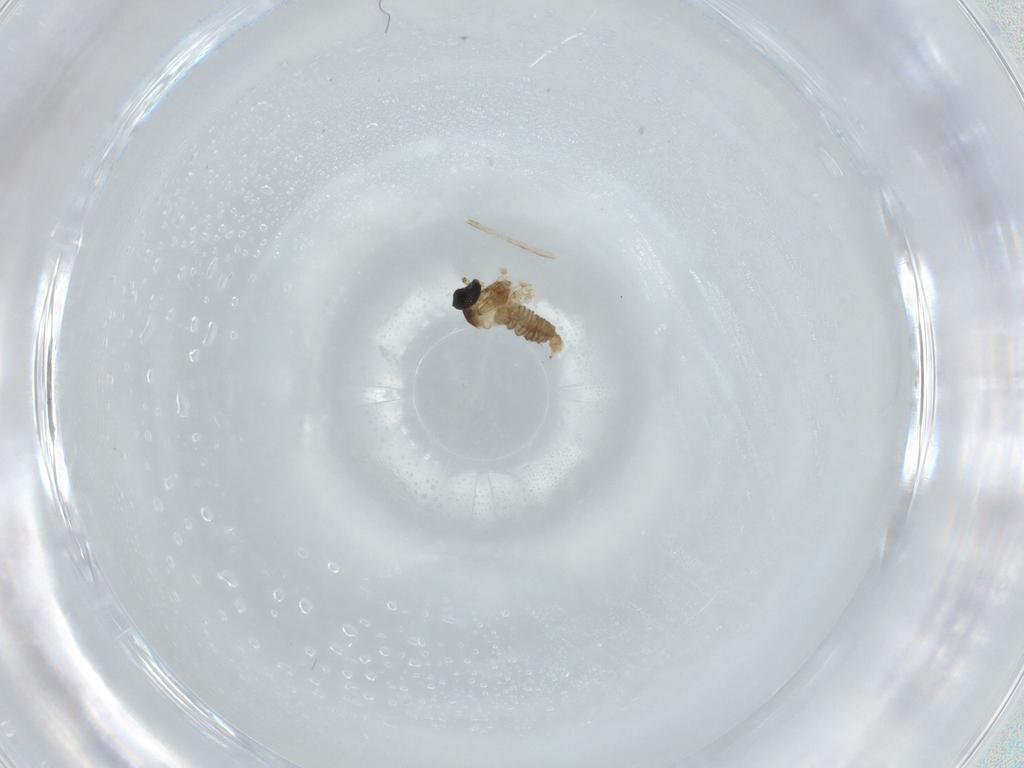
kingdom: Animalia
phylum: Arthropoda
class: Insecta
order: Diptera
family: Cecidomyiidae
